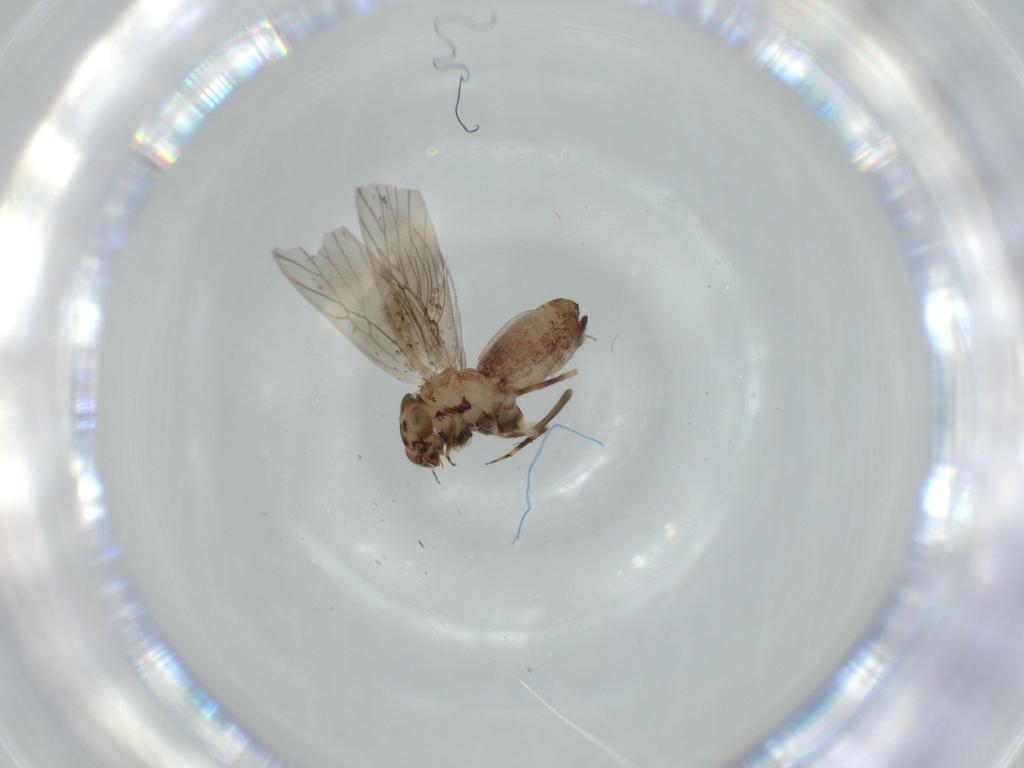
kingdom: Animalia
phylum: Arthropoda
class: Insecta
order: Psocodea
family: Lepidopsocidae
